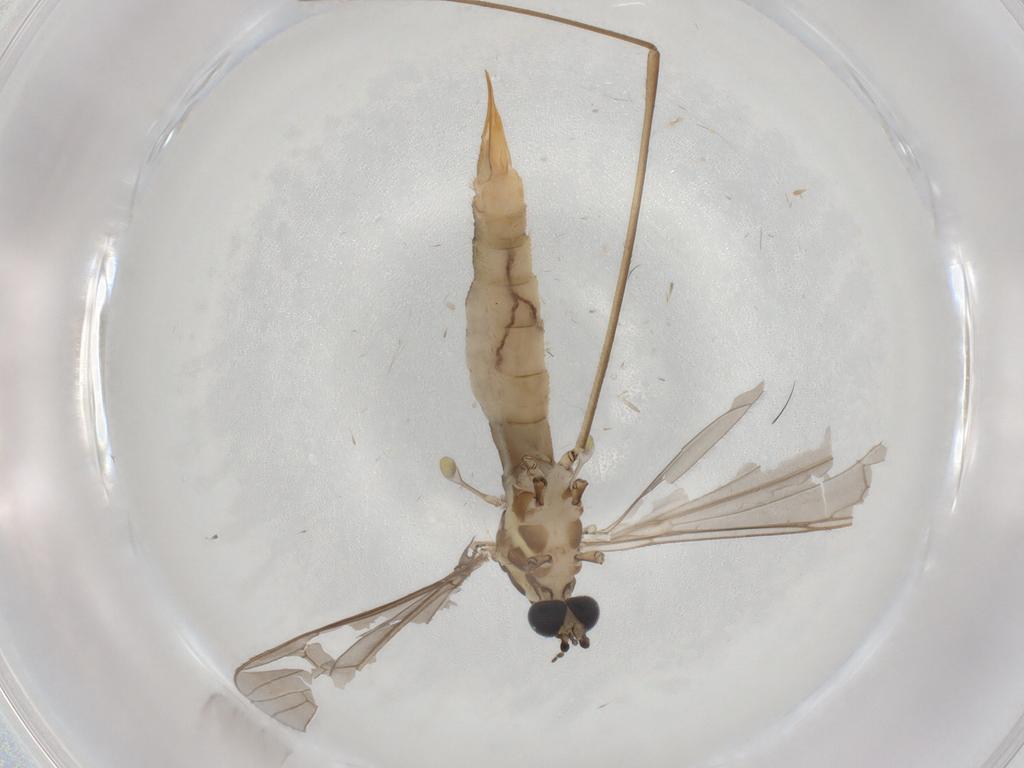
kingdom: Animalia
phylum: Arthropoda
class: Insecta
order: Diptera
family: Limoniidae
